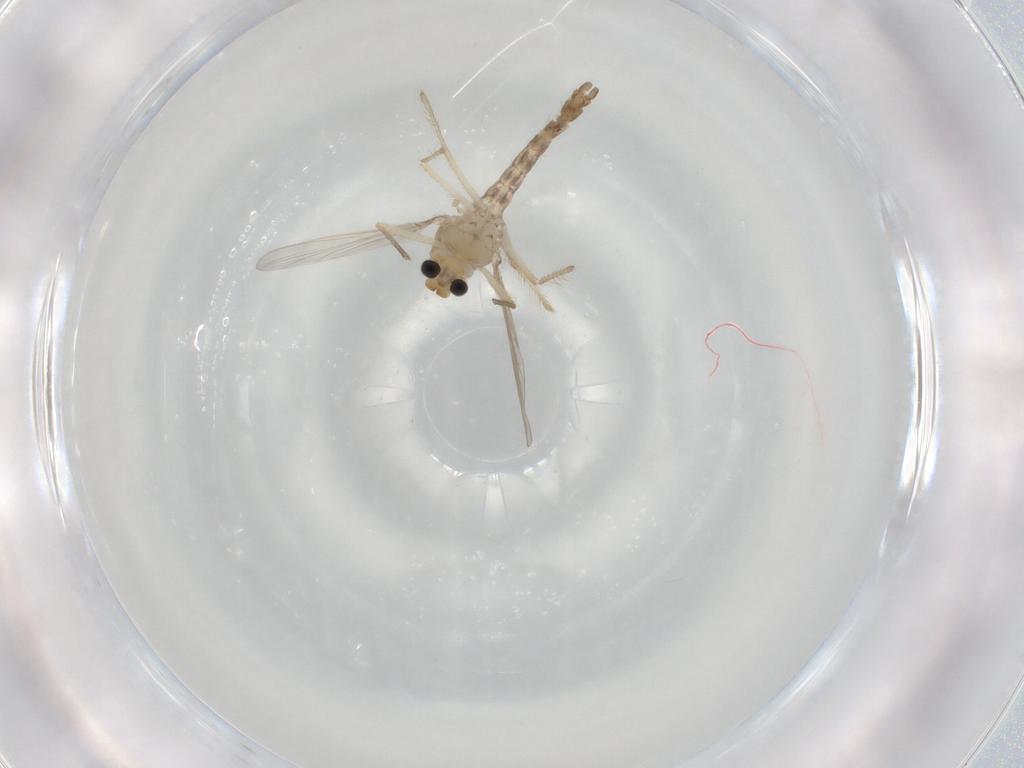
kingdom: Animalia
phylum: Arthropoda
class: Insecta
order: Diptera
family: Chironomidae
